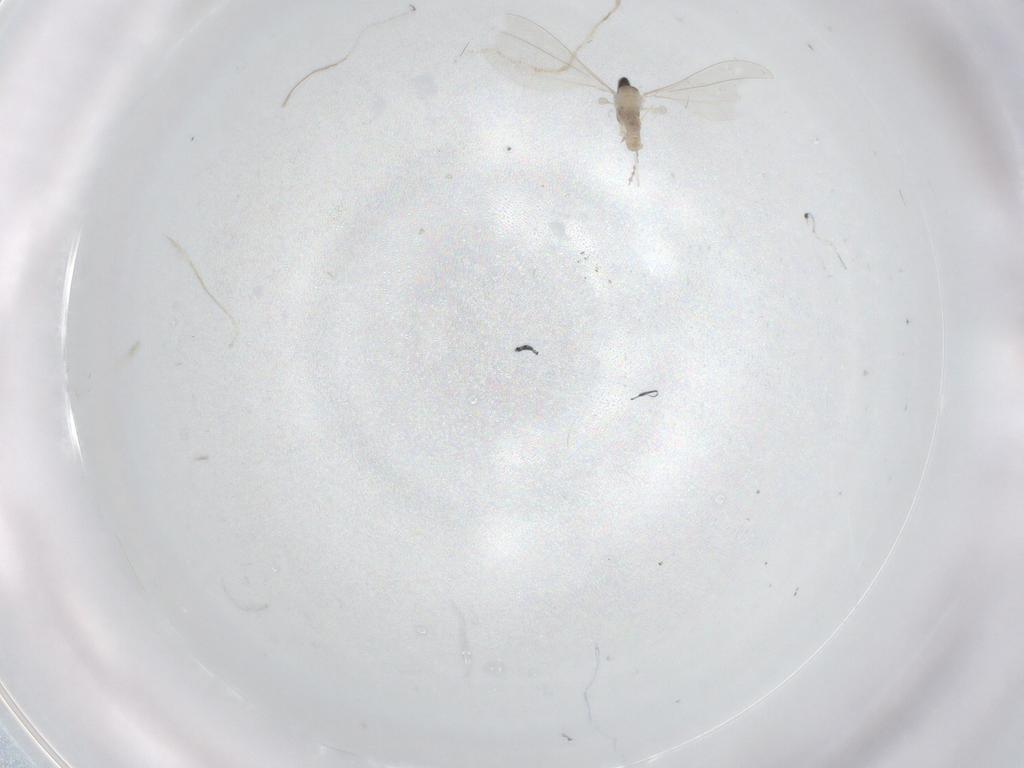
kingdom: Animalia
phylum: Arthropoda
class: Insecta
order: Diptera
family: Cecidomyiidae
